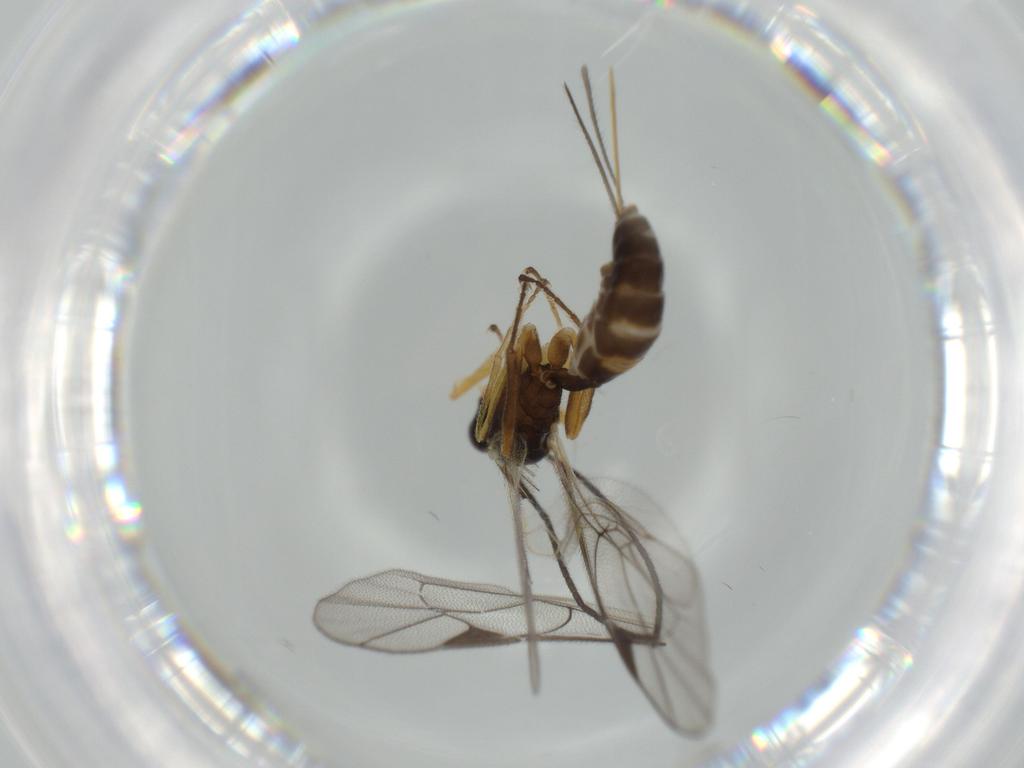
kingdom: Animalia
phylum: Arthropoda
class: Insecta
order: Hymenoptera
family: Ichneumonidae
